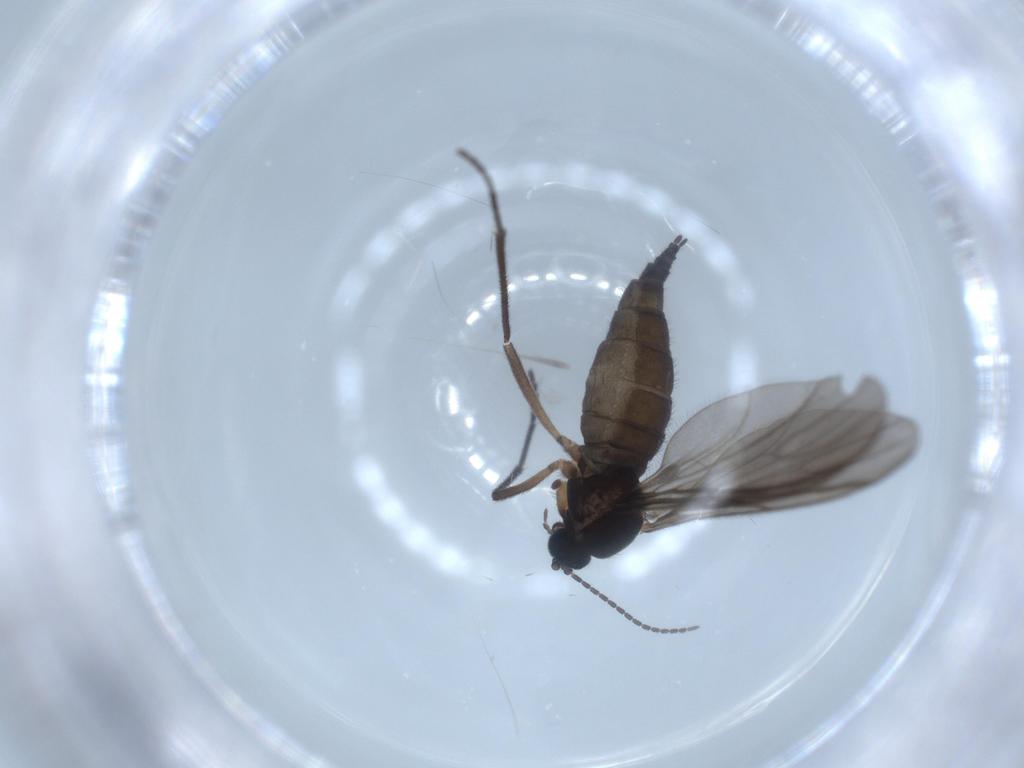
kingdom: Animalia
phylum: Arthropoda
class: Insecta
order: Diptera
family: Sciaridae
